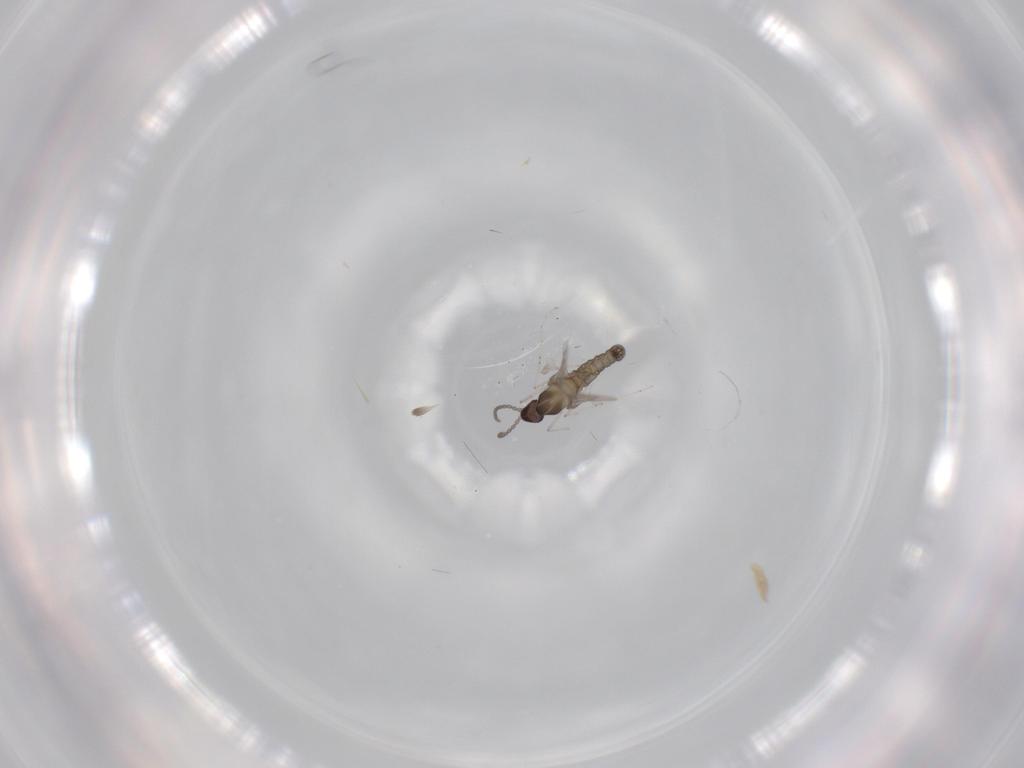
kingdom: Animalia
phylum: Arthropoda
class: Insecta
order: Diptera
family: Cecidomyiidae
